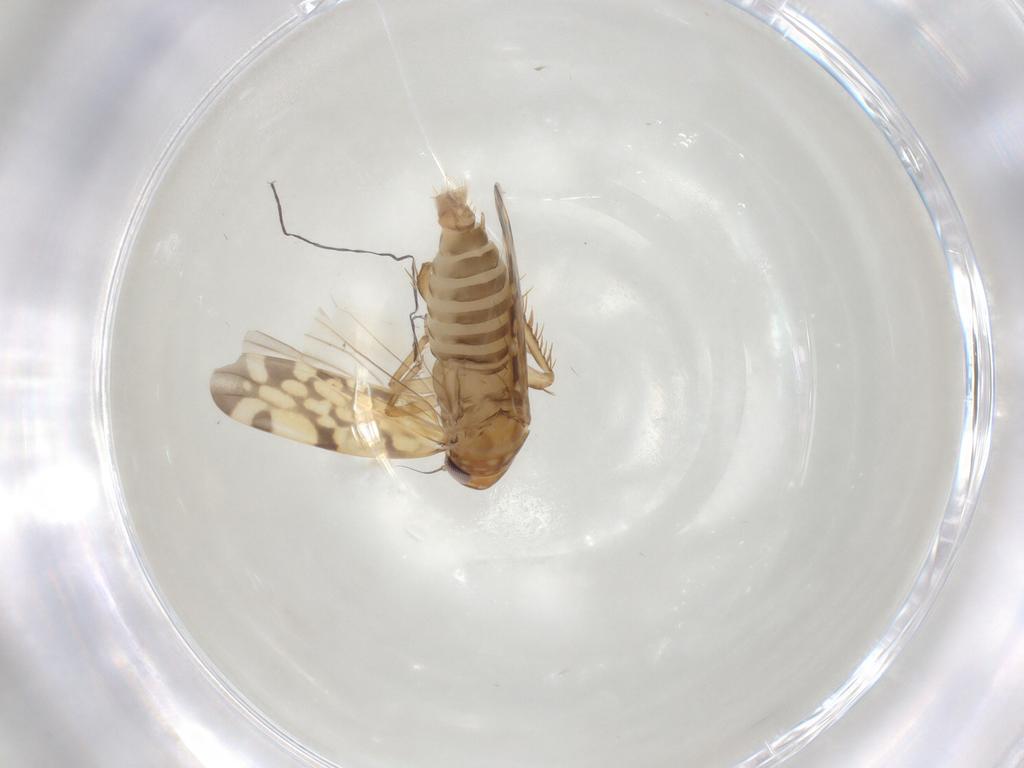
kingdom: Animalia
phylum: Arthropoda
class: Insecta
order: Hemiptera
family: Cicadellidae
